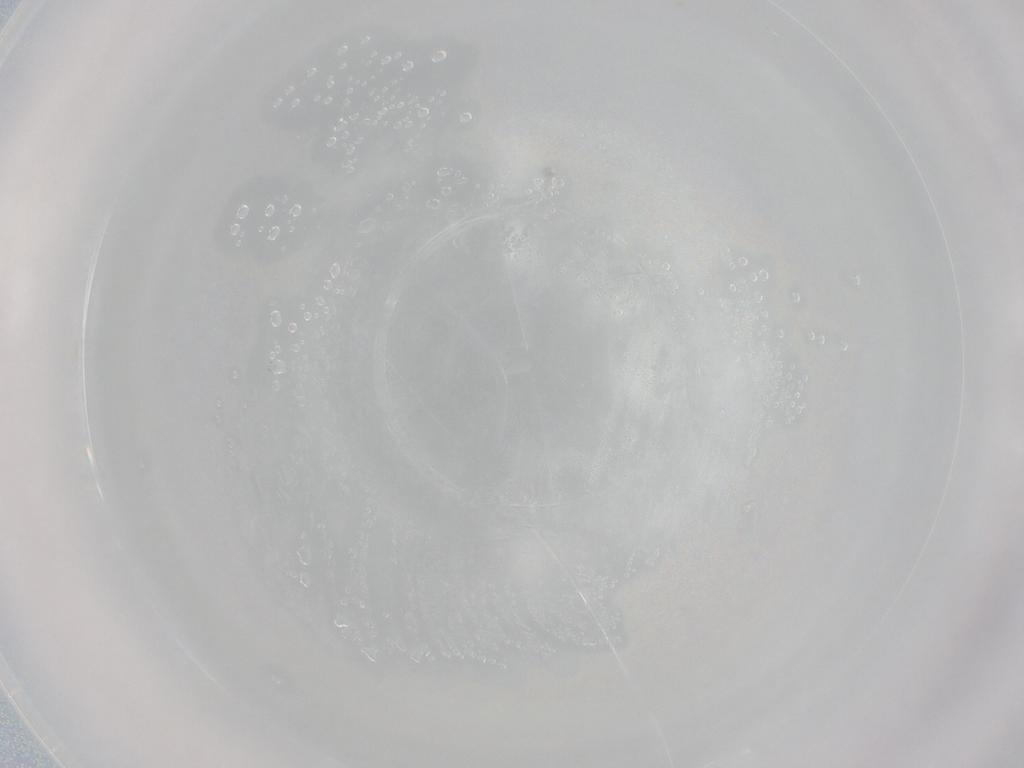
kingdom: Animalia
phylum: Arthropoda
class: Collembola
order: Entomobryomorpha
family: Entomobryidae
